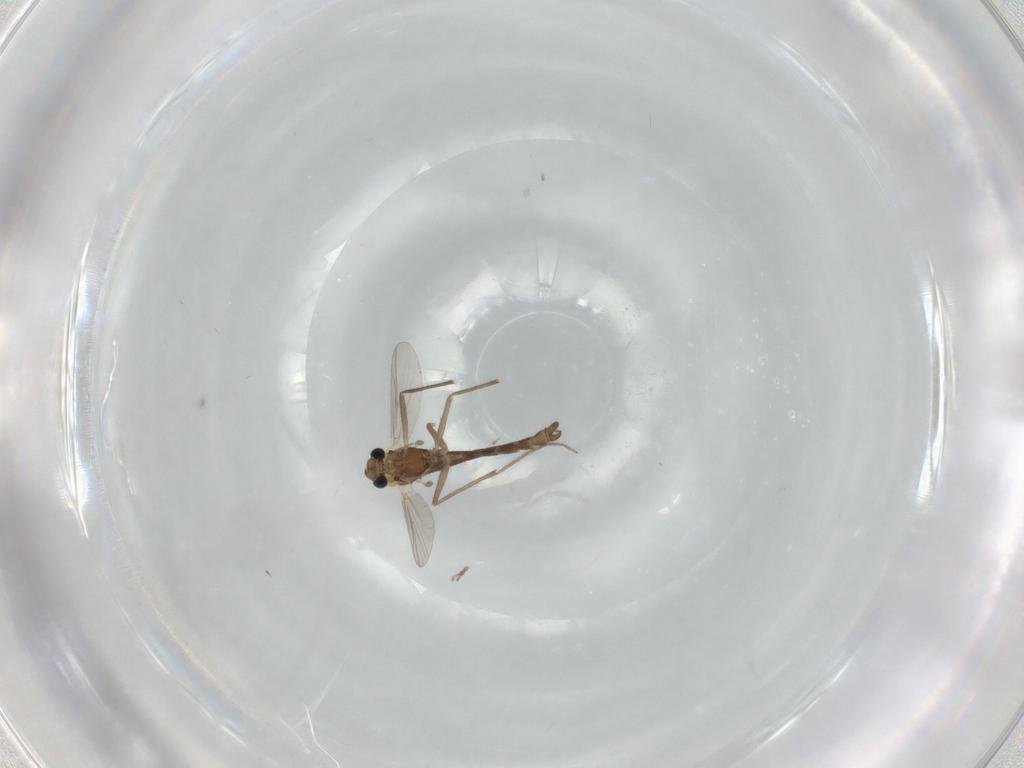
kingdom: Animalia
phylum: Arthropoda
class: Insecta
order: Diptera
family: Chironomidae
